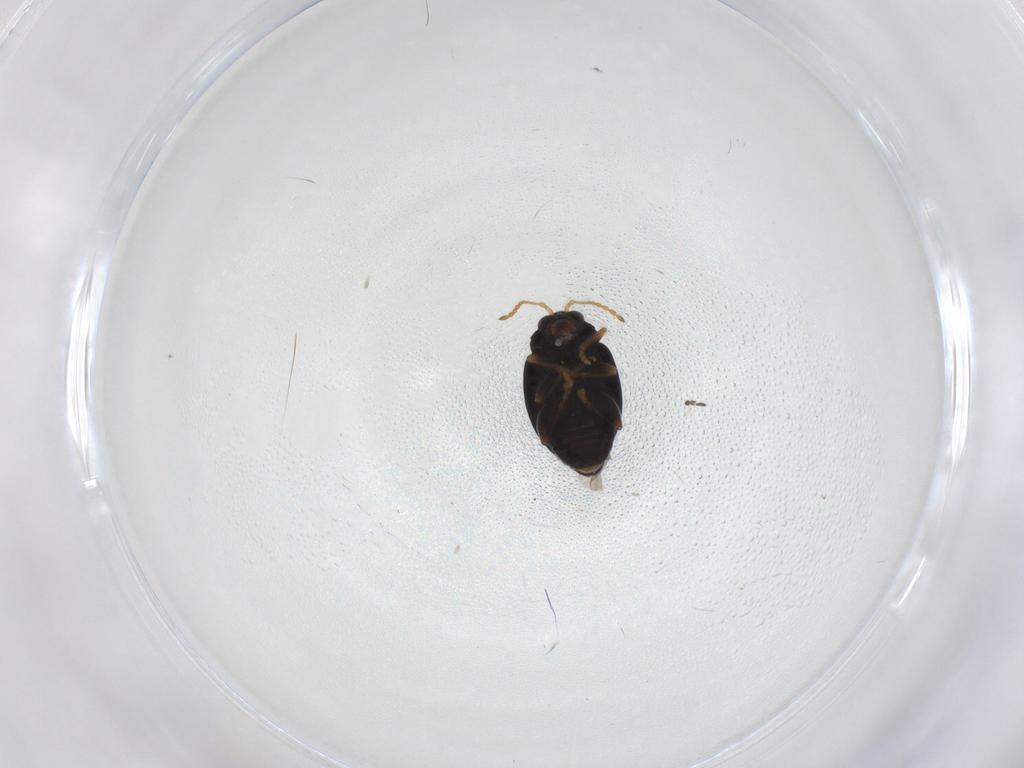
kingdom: Animalia
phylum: Arthropoda
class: Insecta
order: Coleoptera
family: Chrysomelidae
